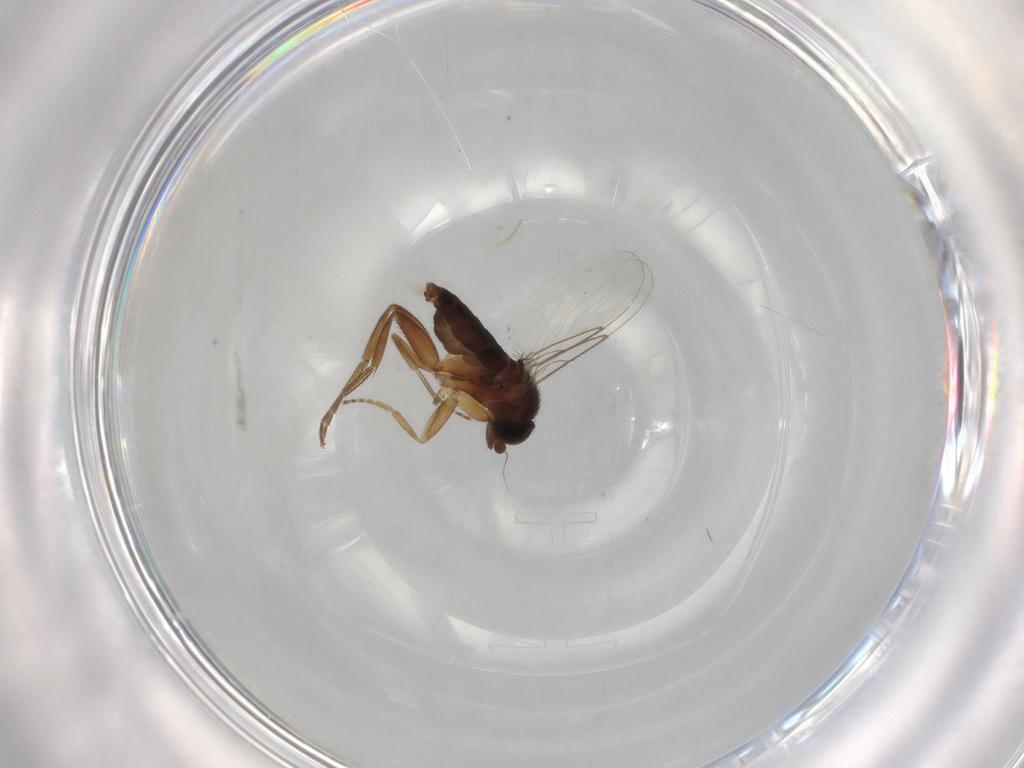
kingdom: Animalia
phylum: Arthropoda
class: Insecta
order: Diptera
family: Phoridae
